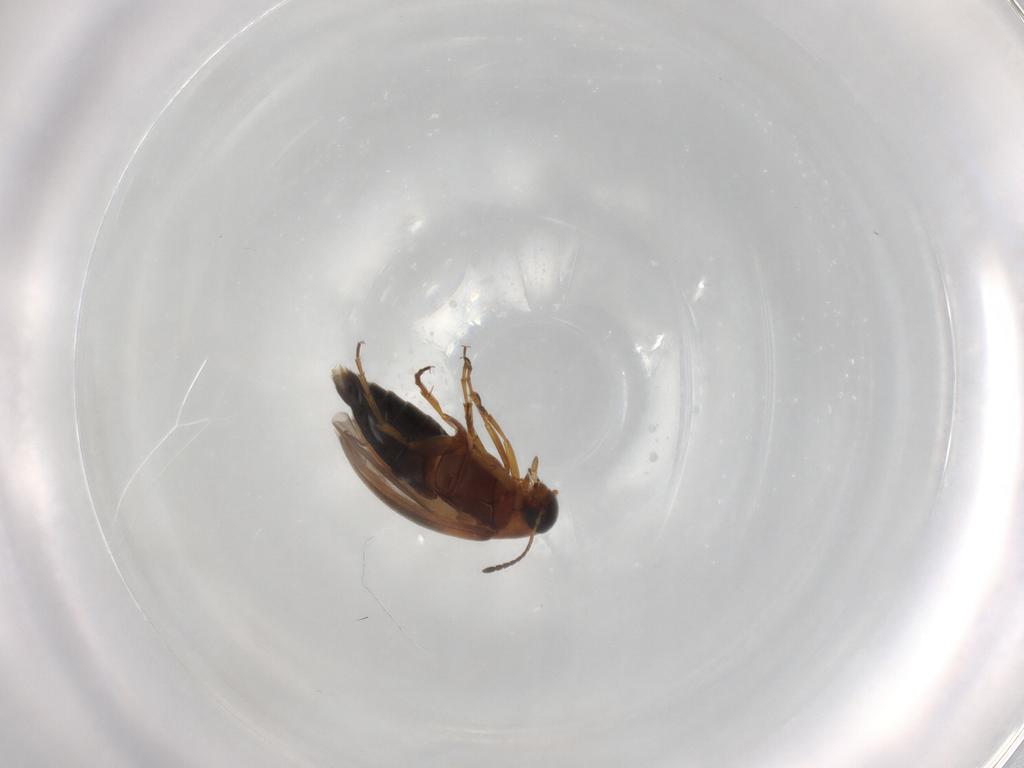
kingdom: Animalia
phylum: Arthropoda
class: Insecta
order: Coleoptera
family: Scraptiidae
